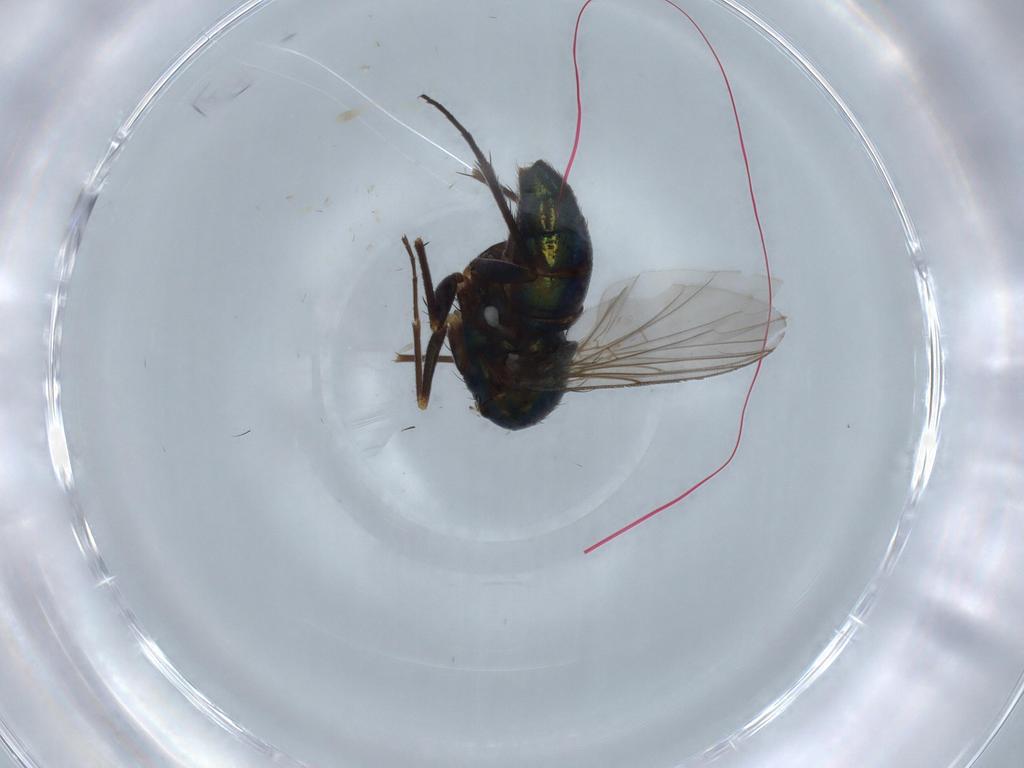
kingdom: Animalia
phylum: Arthropoda
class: Insecta
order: Diptera
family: Dolichopodidae
